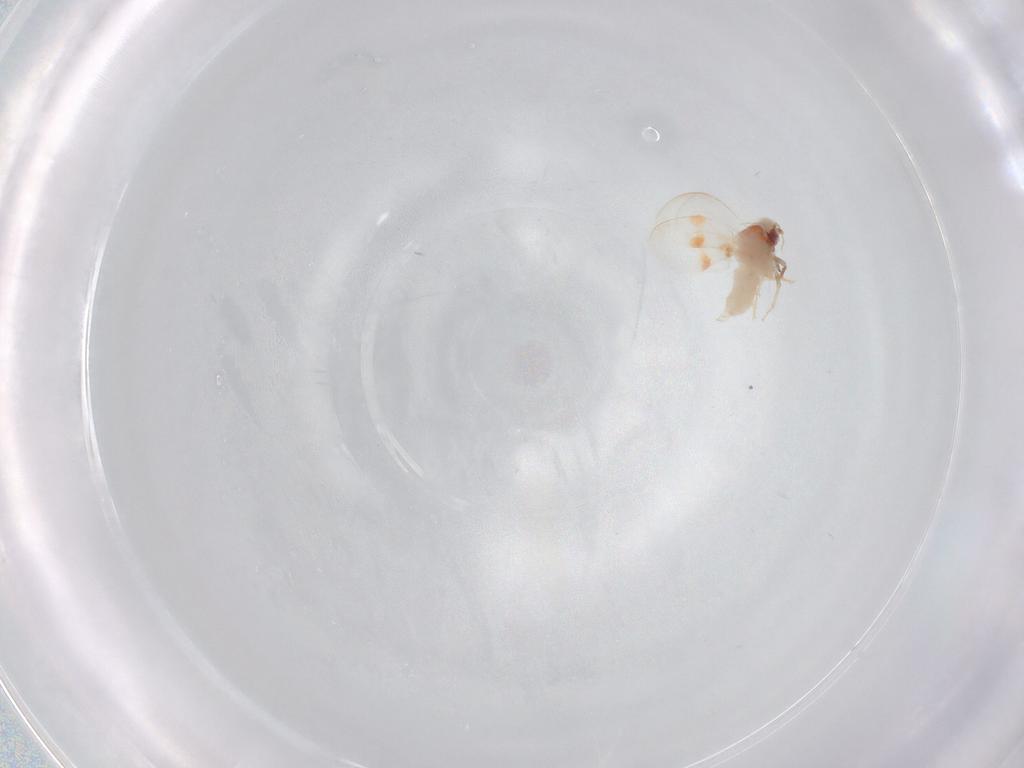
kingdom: Animalia
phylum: Arthropoda
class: Insecta
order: Hemiptera
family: Aleyrodidae
